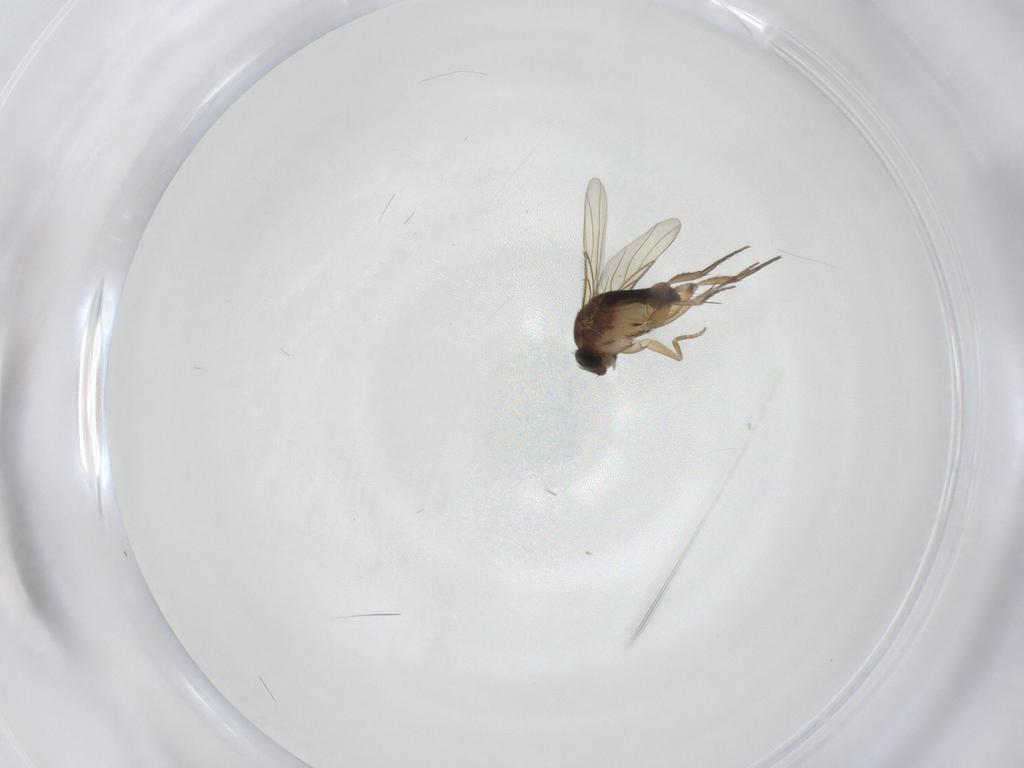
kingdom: Animalia
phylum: Arthropoda
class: Insecta
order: Diptera
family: Phoridae
